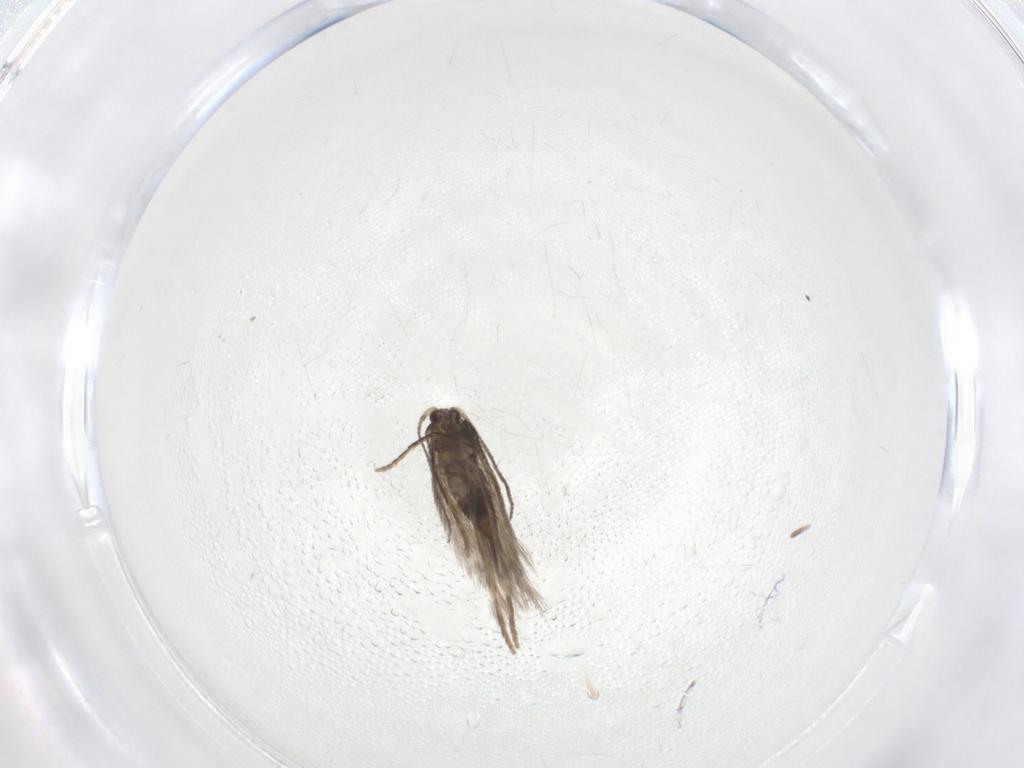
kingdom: Animalia
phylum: Arthropoda
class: Insecta
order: Lepidoptera
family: Nepticulidae
